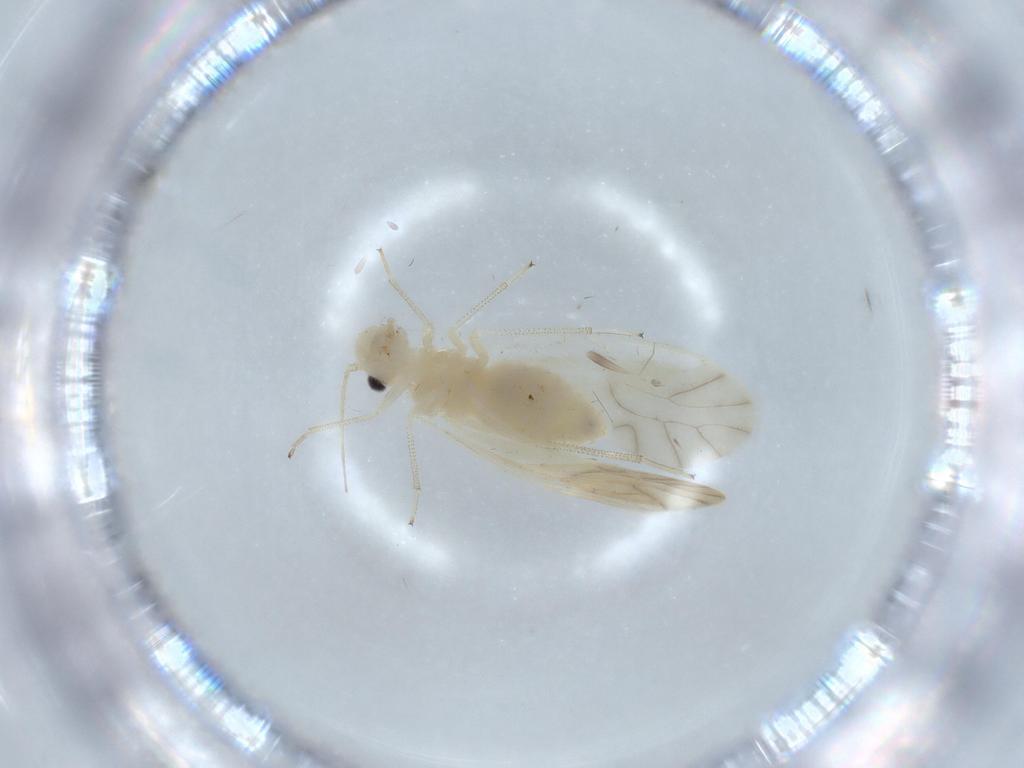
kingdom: Animalia
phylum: Arthropoda
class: Insecta
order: Psocodea
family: Caeciliusidae
